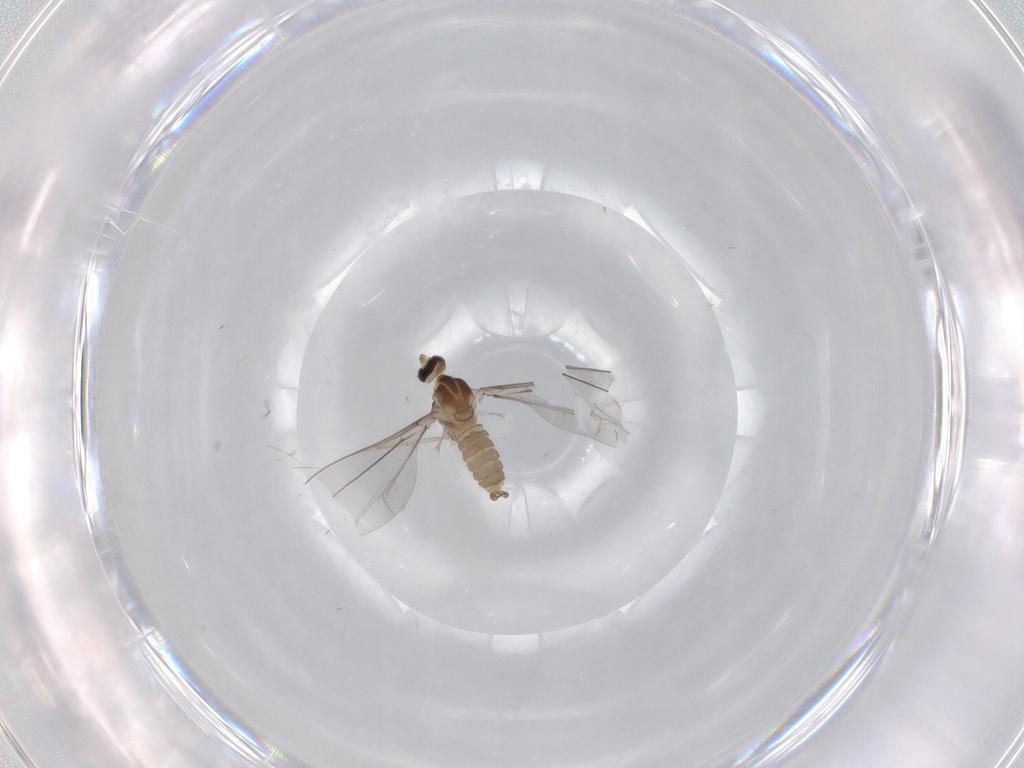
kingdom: Animalia
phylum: Arthropoda
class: Insecta
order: Diptera
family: Cecidomyiidae
